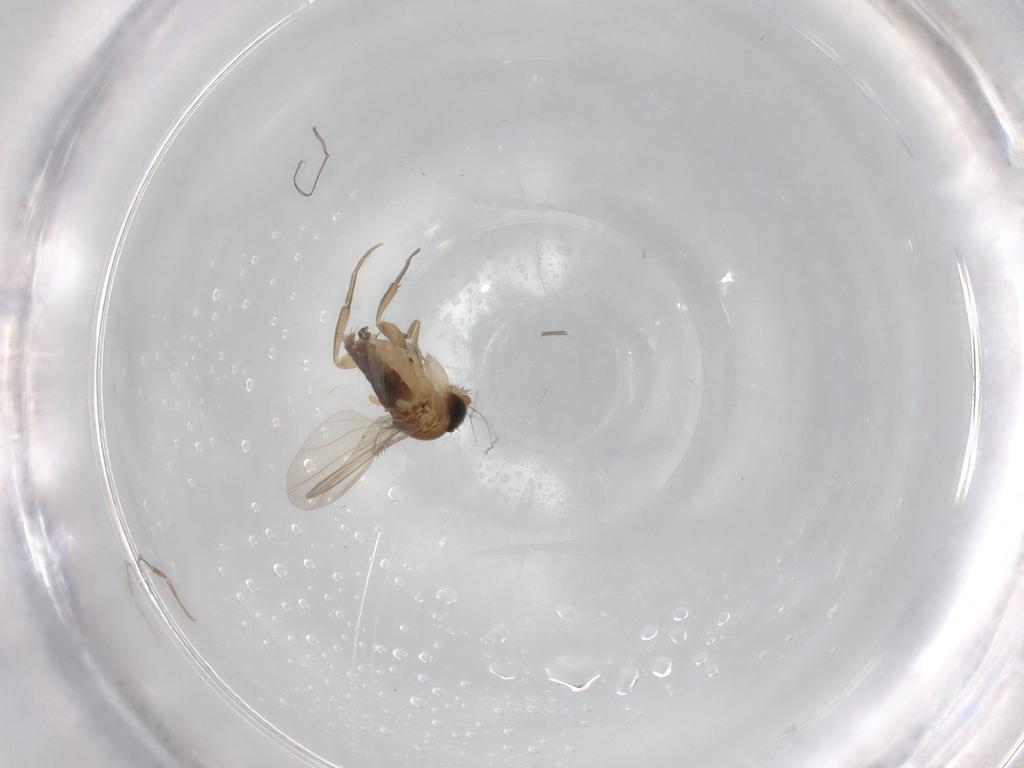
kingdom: Animalia
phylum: Arthropoda
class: Insecta
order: Diptera
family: Phoridae
